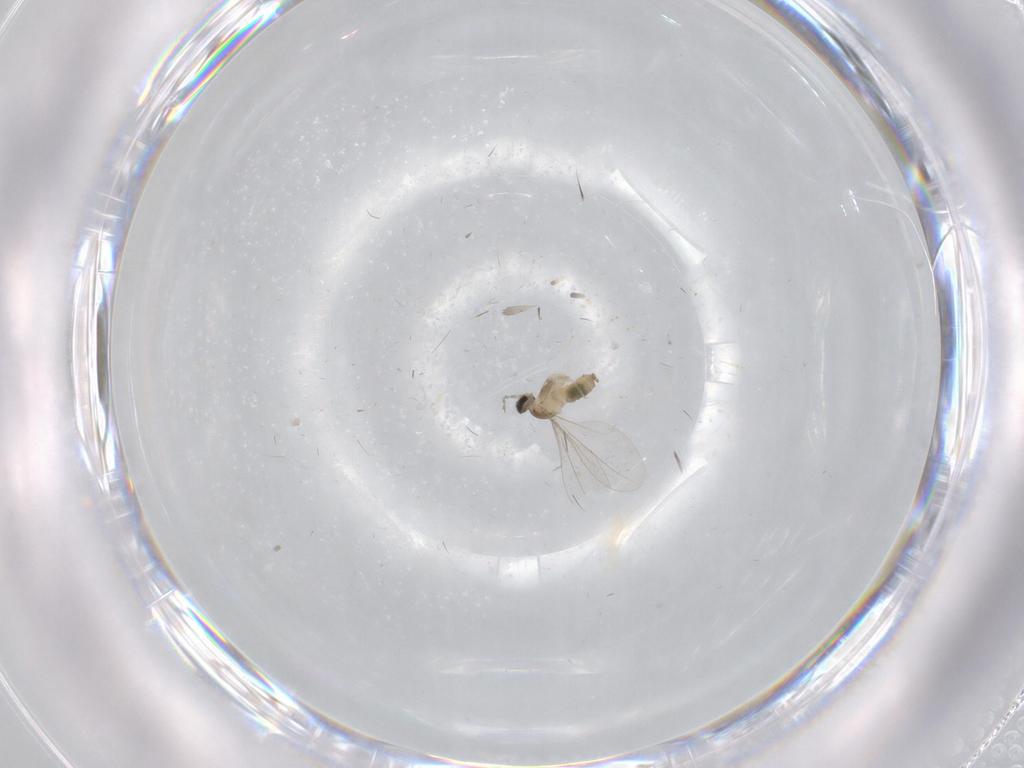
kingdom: Animalia
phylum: Arthropoda
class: Insecta
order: Diptera
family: Cecidomyiidae
